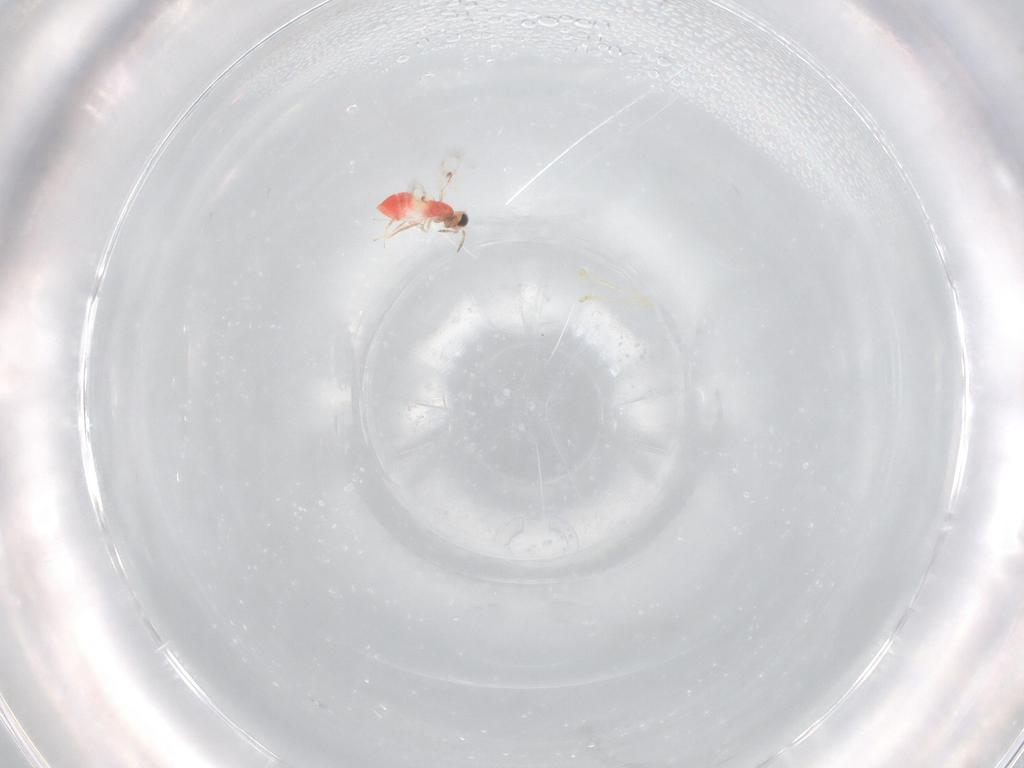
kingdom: Animalia
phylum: Arthropoda
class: Insecta
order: Hymenoptera
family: Trichogrammatidae
